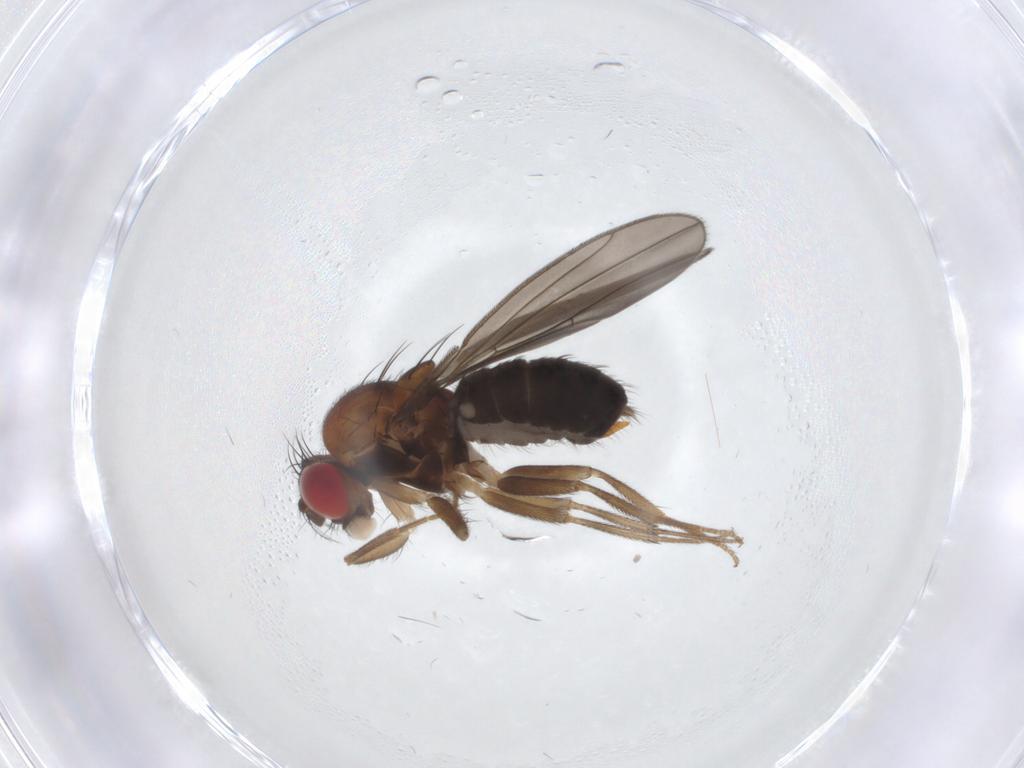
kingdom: Animalia
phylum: Arthropoda
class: Insecta
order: Diptera
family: Drosophilidae
